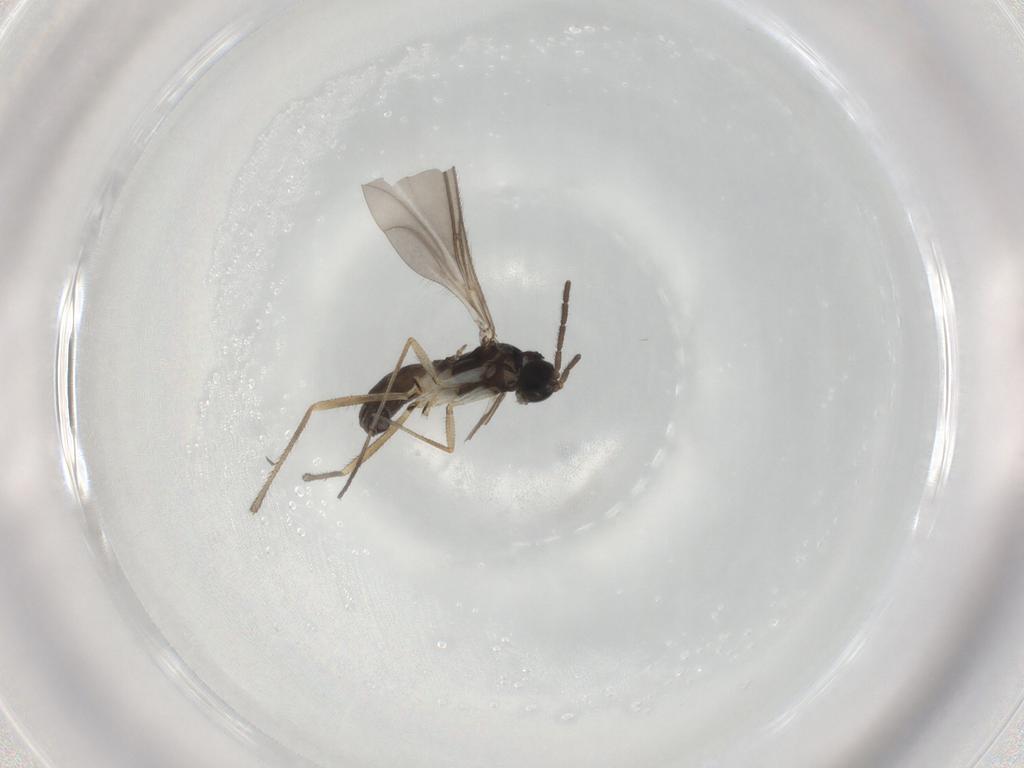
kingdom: Animalia
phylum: Arthropoda
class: Insecta
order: Diptera
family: Sciaridae
